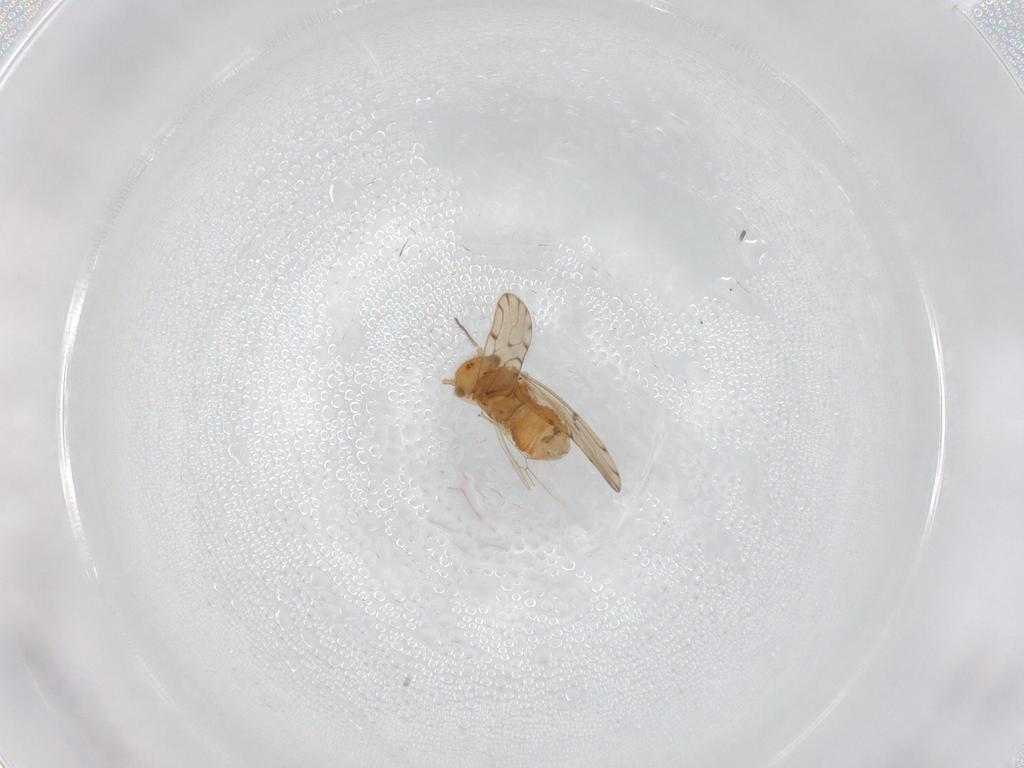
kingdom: Animalia
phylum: Arthropoda
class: Insecta
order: Psocodea
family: Ectopsocidae
